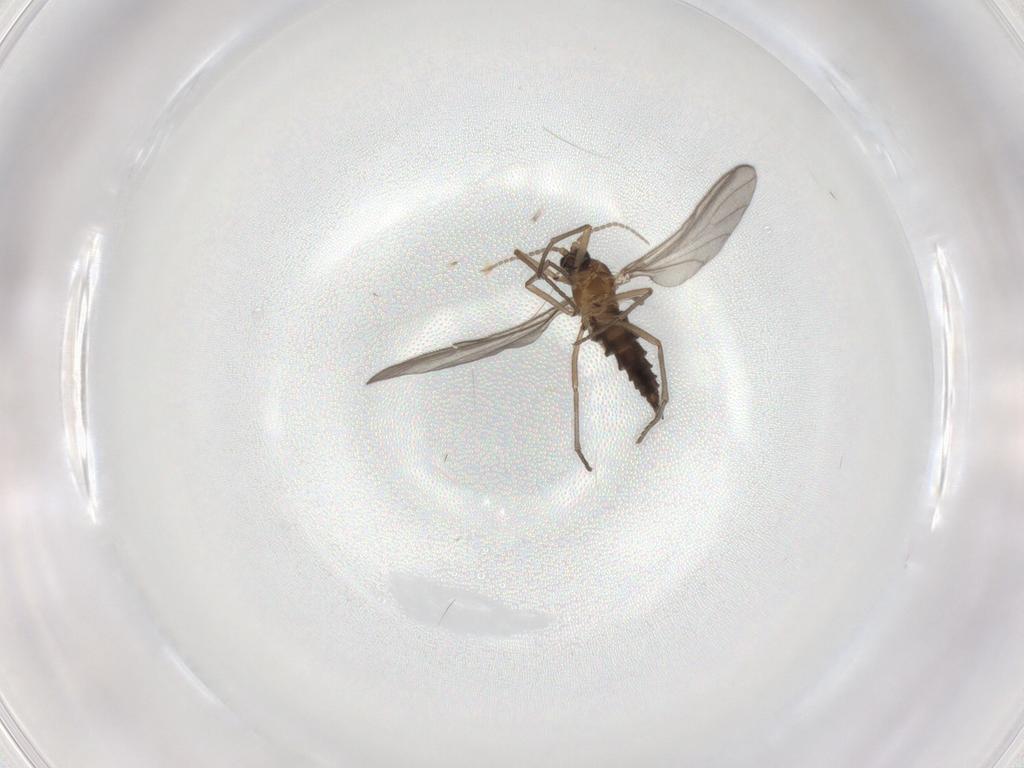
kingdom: Animalia
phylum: Arthropoda
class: Insecta
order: Diptera
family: Sciaridae
